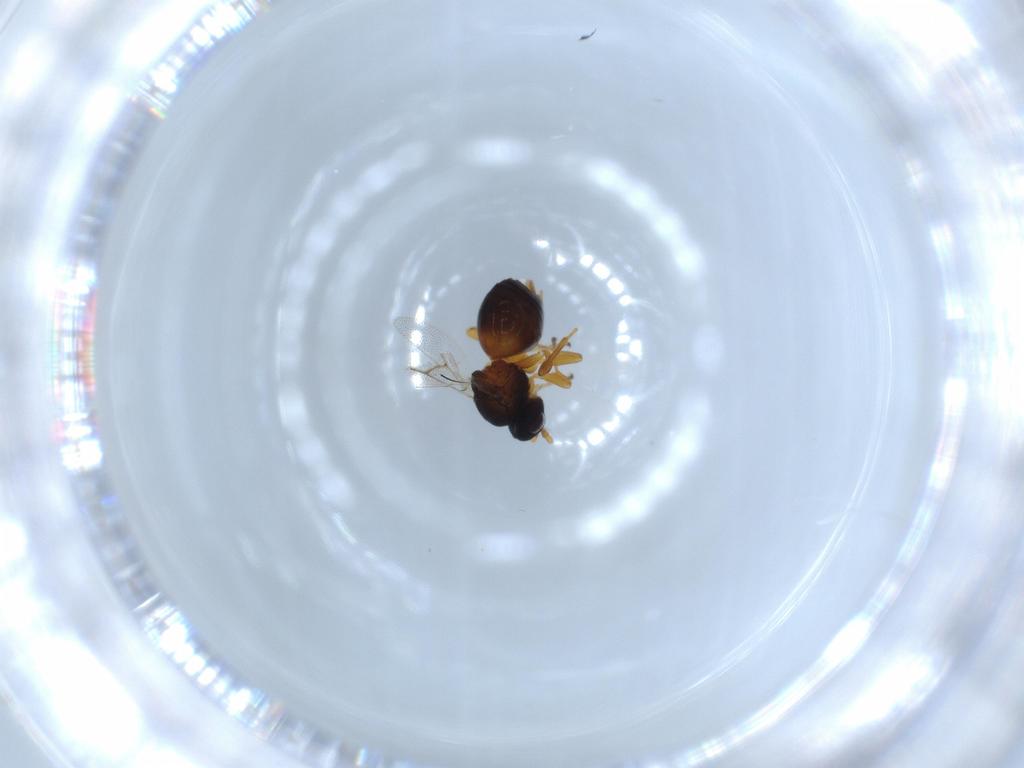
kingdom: Animalia
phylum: Arthropoda
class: Insecta
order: Hymenoptera
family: Cynipidae
